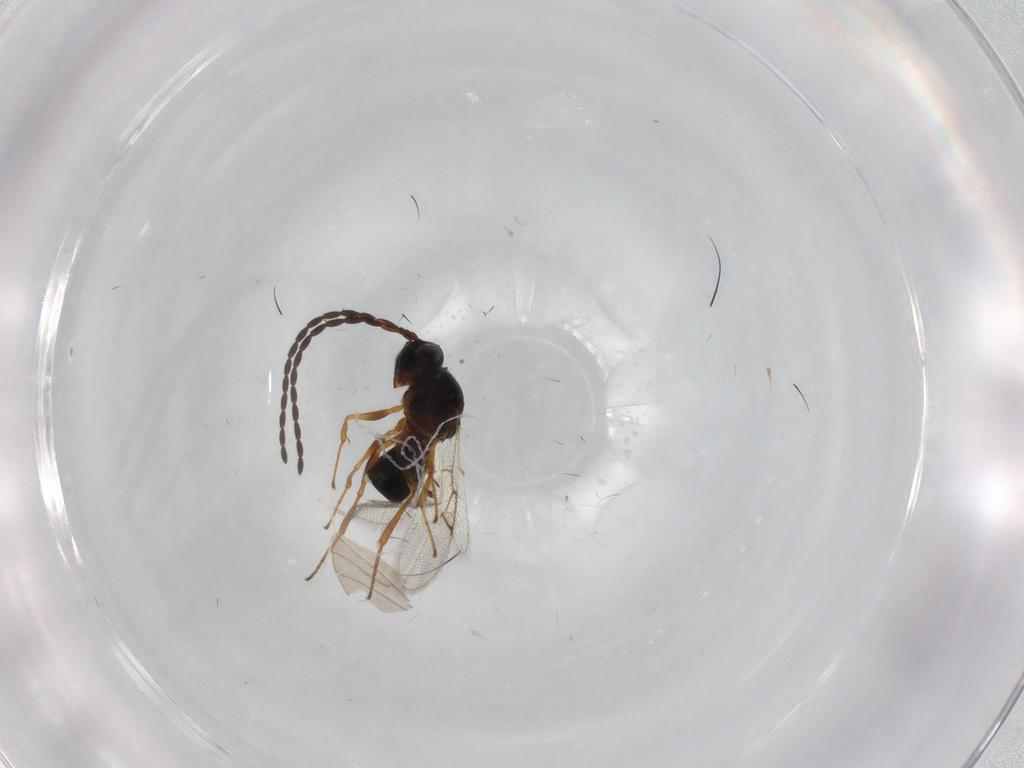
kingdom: Animalia
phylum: Arthropoda
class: Insecta
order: Hymenoptera
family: Figitidae
